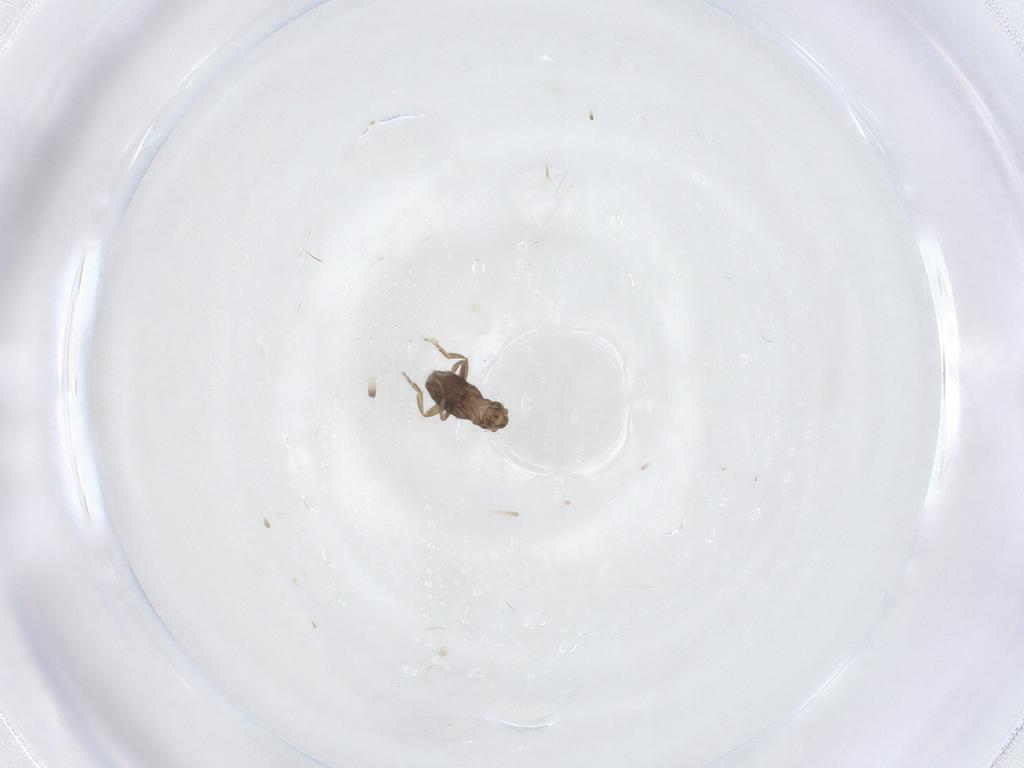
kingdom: Animalia
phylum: Arthropoda
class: Insecta
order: Diptera
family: Phoridae
